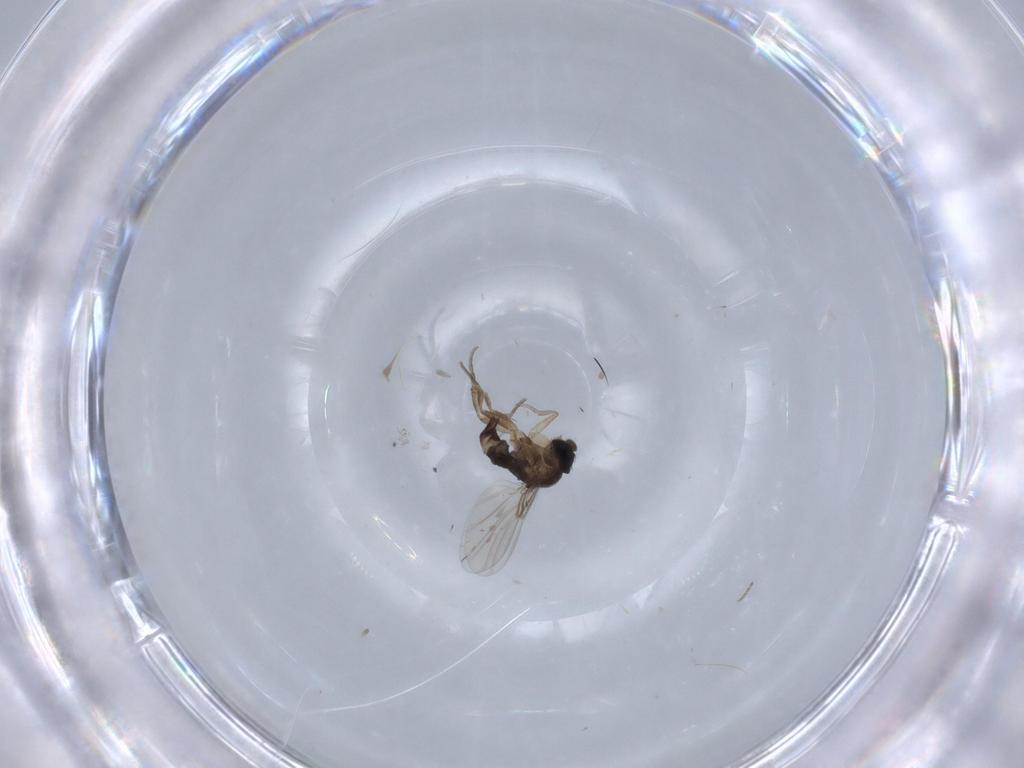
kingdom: Animalia
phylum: Arthropoda
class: Insecta
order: Diptera
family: Phoridae
